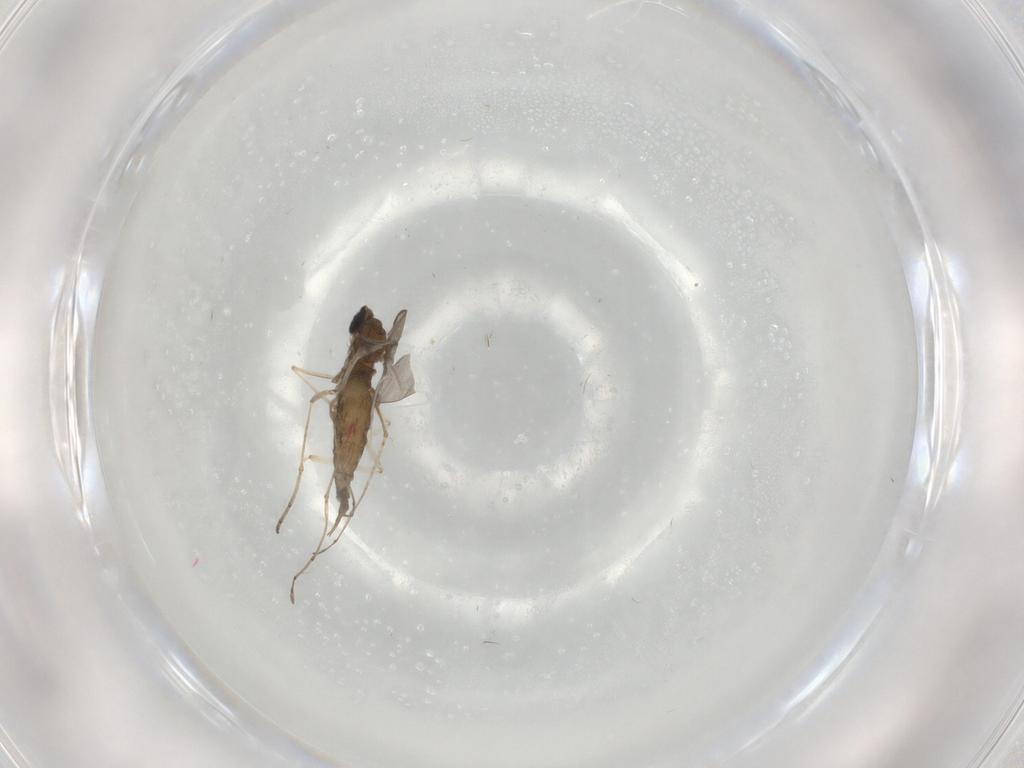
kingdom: Animalia
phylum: Arthropoda
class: Insecta
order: Diptera
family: Cecidomyiidae
